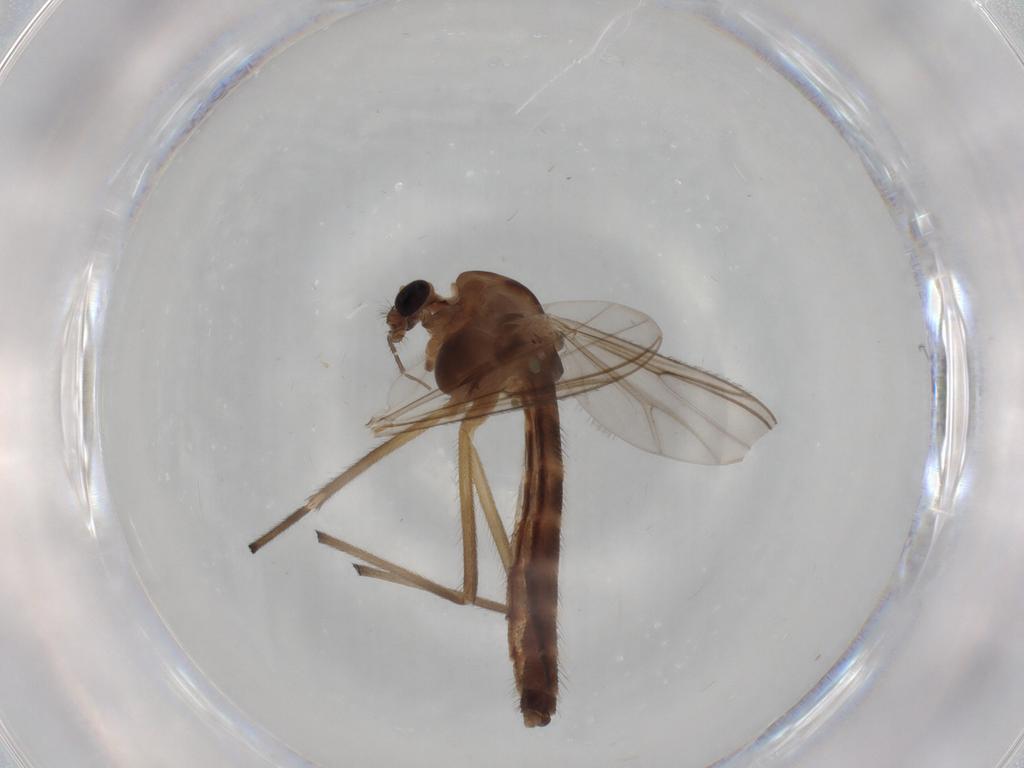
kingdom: Animalia
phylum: Arthropoda
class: Insecta
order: Diptera
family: Chironomidae
